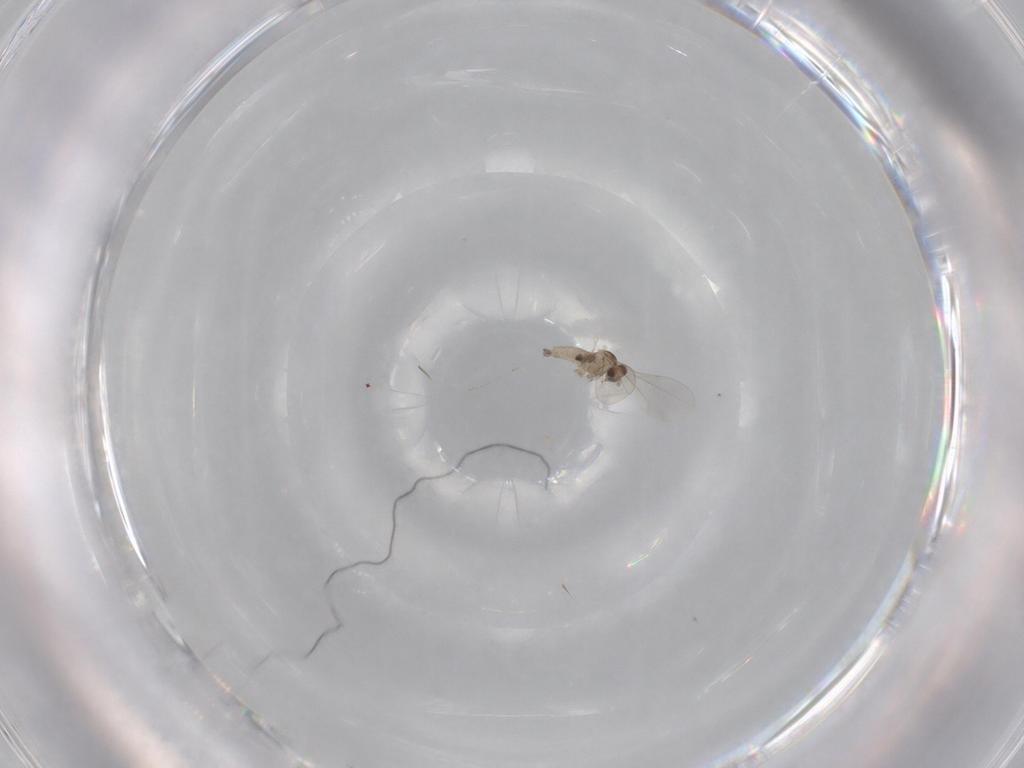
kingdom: Animalia
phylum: Arthropoda
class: Insecta
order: Diptera
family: Cecidomyiidae
